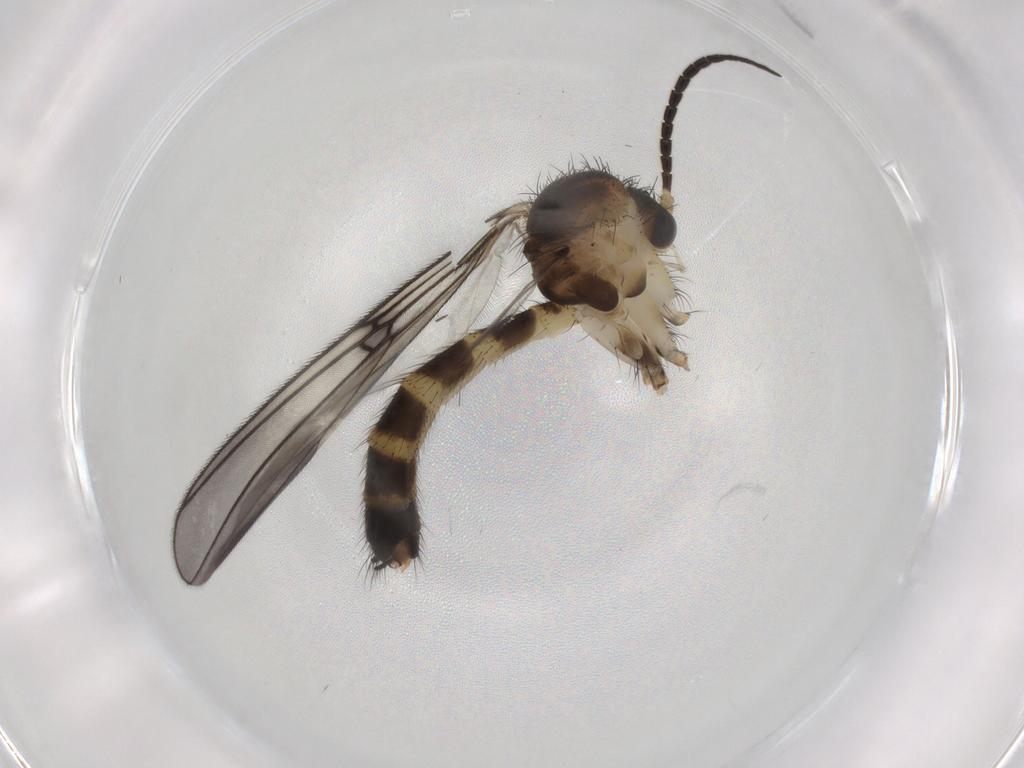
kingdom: Animalia
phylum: Arthropoda
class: Insecta
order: Diptera
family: Mycetophilidae
